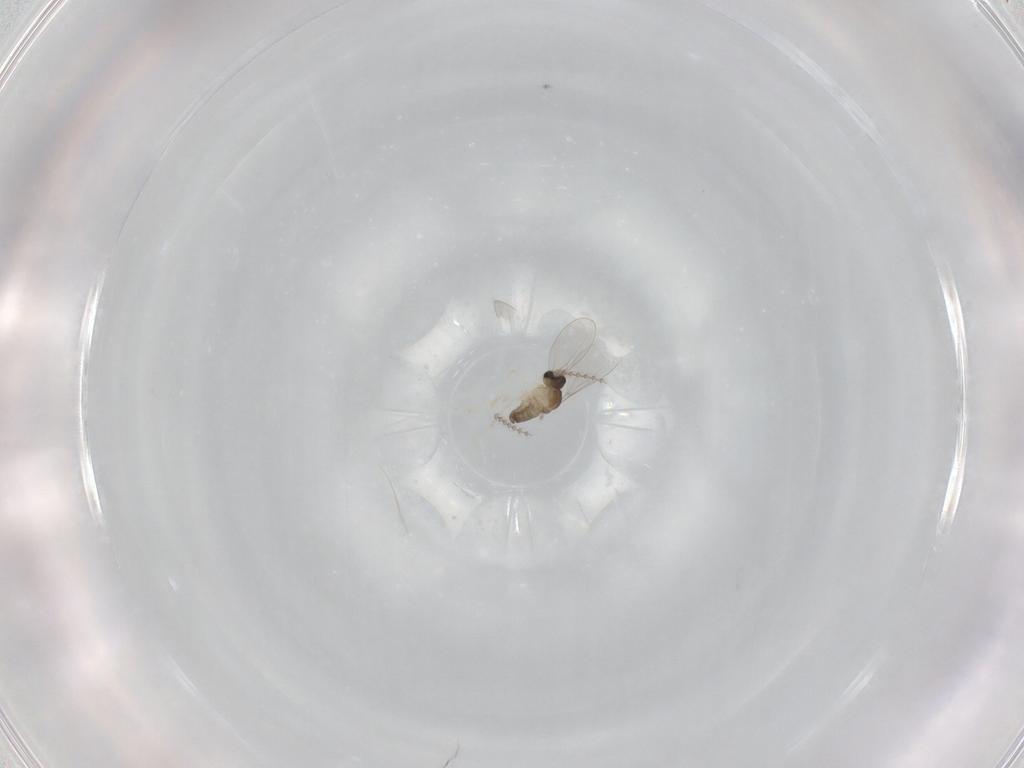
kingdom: Animalia
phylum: Arthropoda
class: Insecta
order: Diptera
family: Cecidomyiidae
